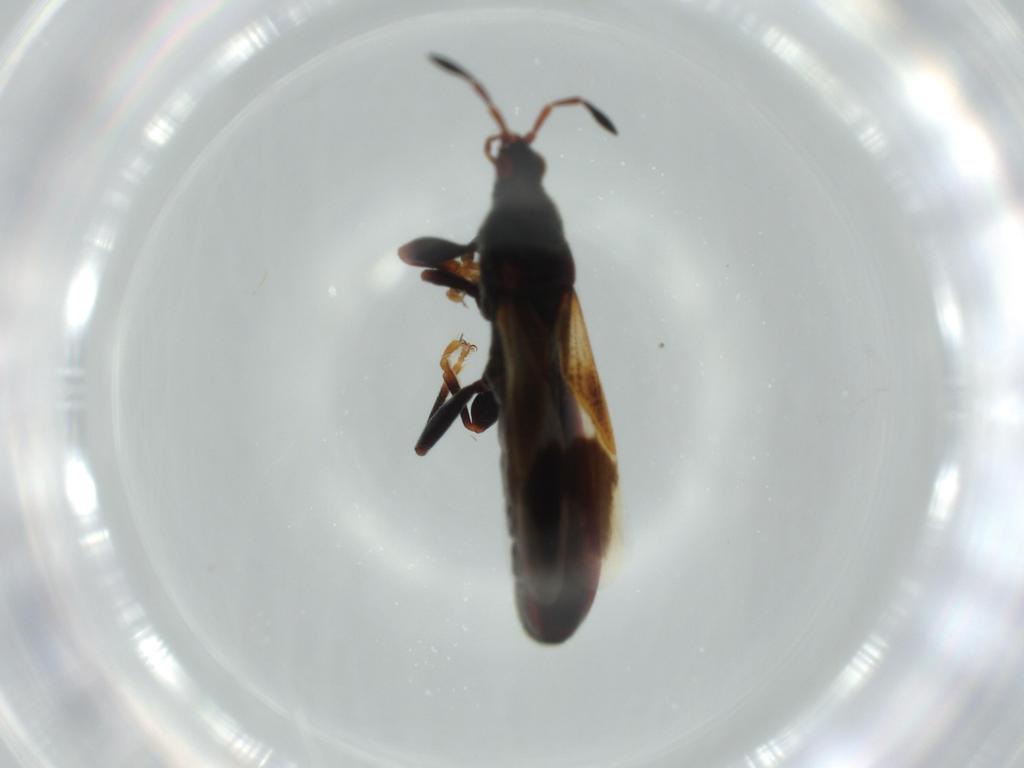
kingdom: Animalia
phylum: Arthropoda
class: Insecta
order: Hemiptera
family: Blissidae
